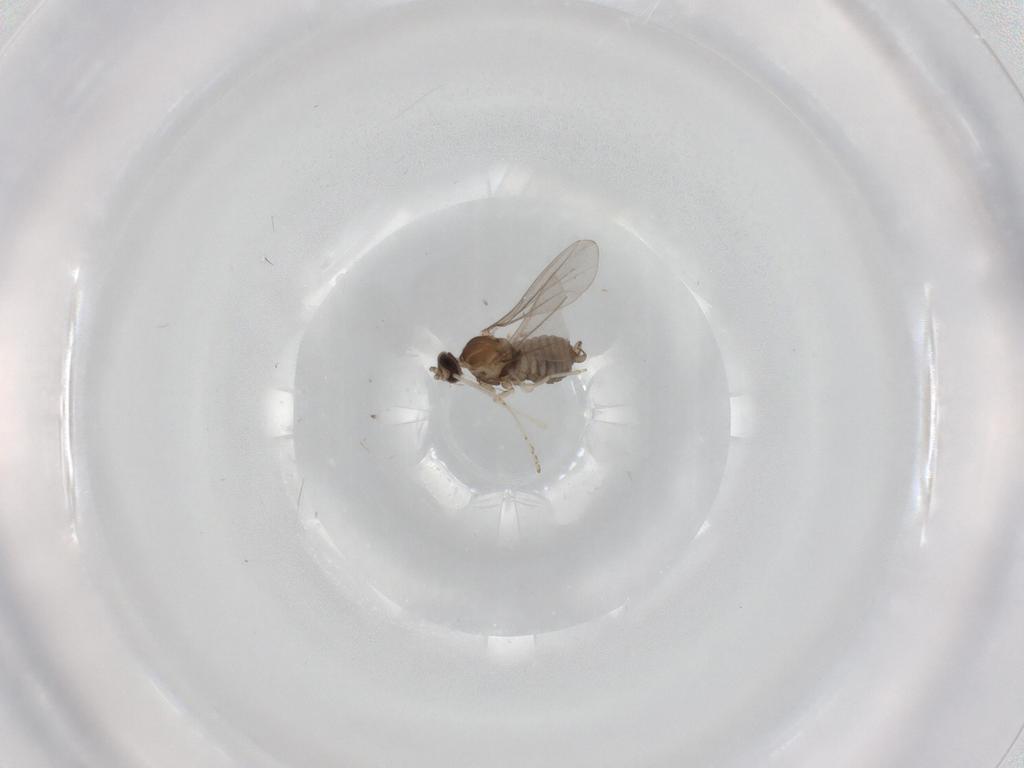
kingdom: Animalia
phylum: Arthropoda
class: Insecta
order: Diptera
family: Cecidomyiidae
